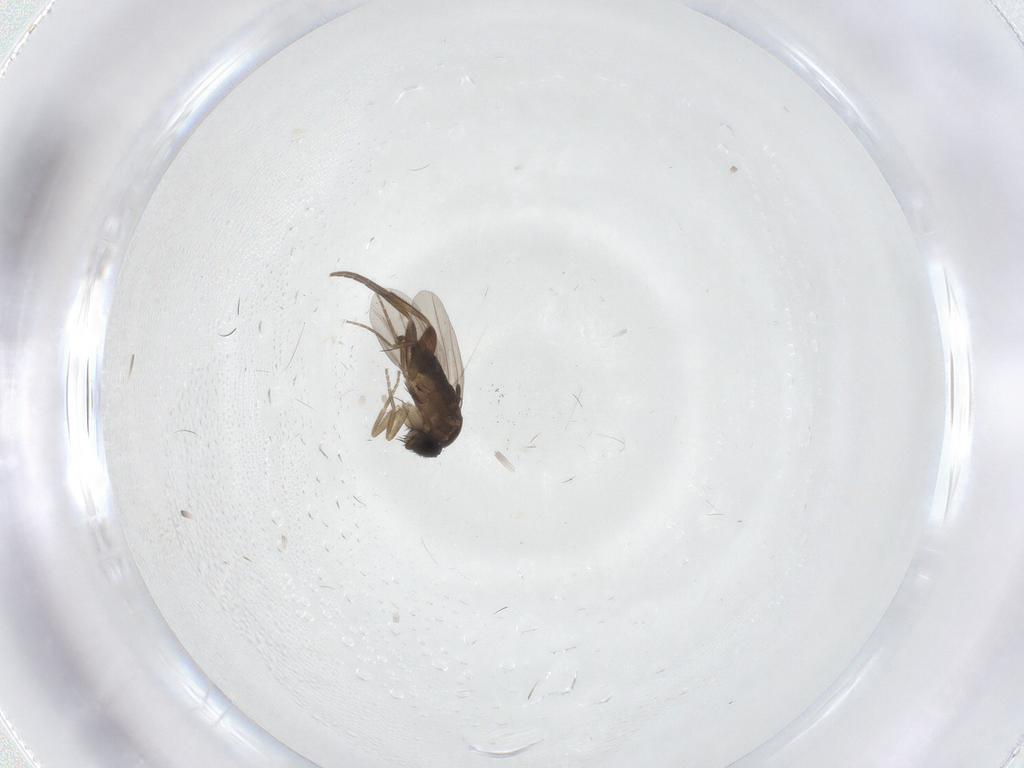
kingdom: Animalia
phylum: Arthropoda
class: Insecta
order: Diptera
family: Phoridae
